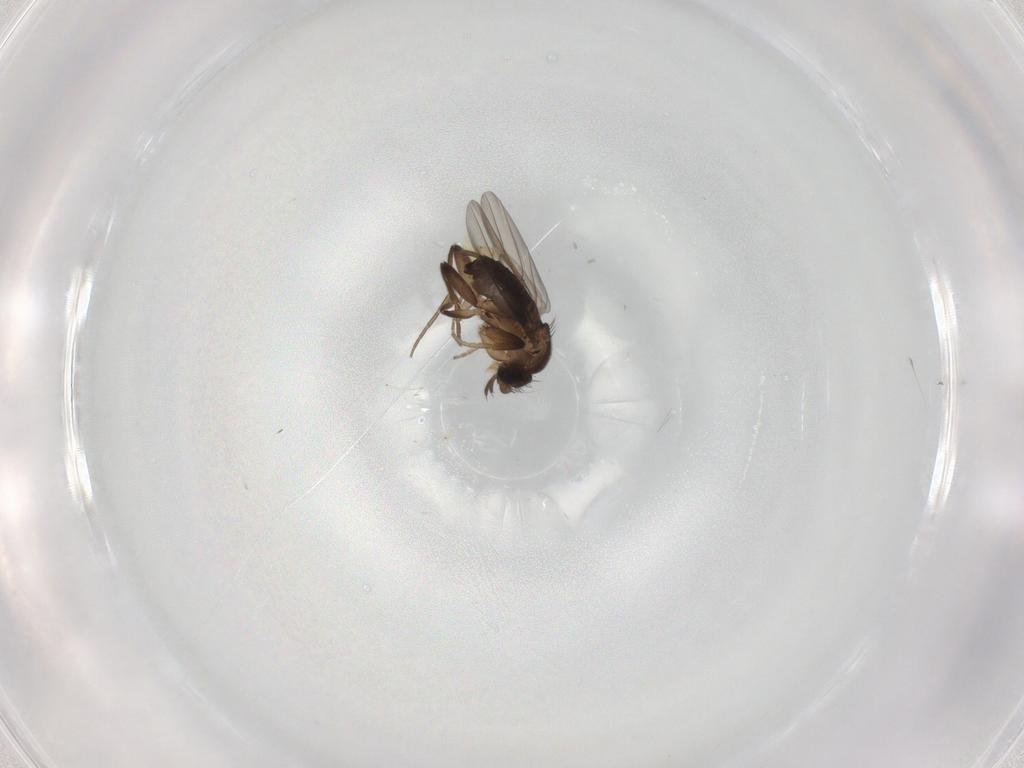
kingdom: Animalia
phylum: Arthropoda
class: Insecta
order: Diptera
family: Phoridae
